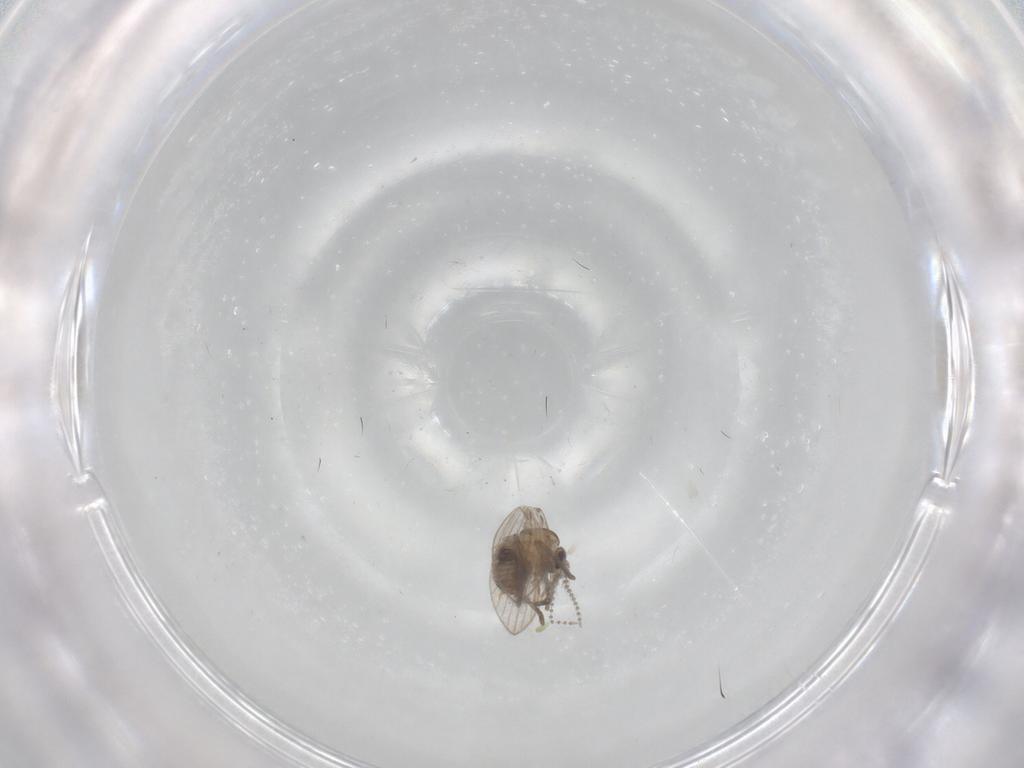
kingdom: Animalia
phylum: Arthropoda
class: Insecta
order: Diptera
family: Psychodidae
